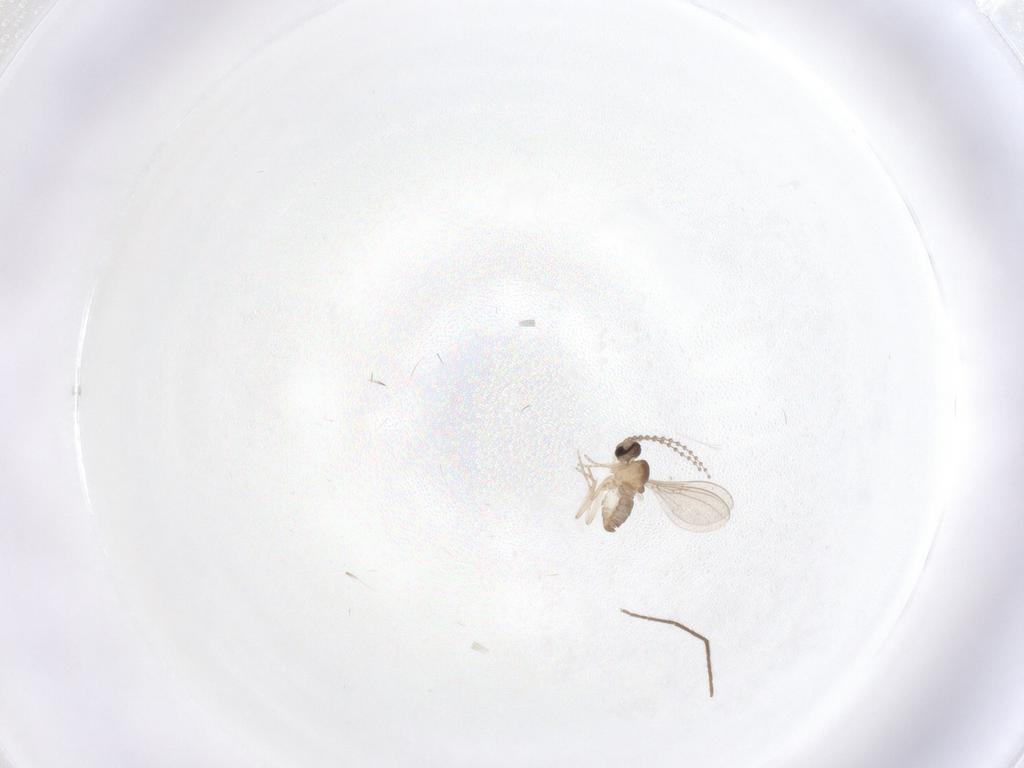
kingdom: Animalia
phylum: Arthropoda
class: Insecta
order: Diptera
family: Cecidomyiidae
